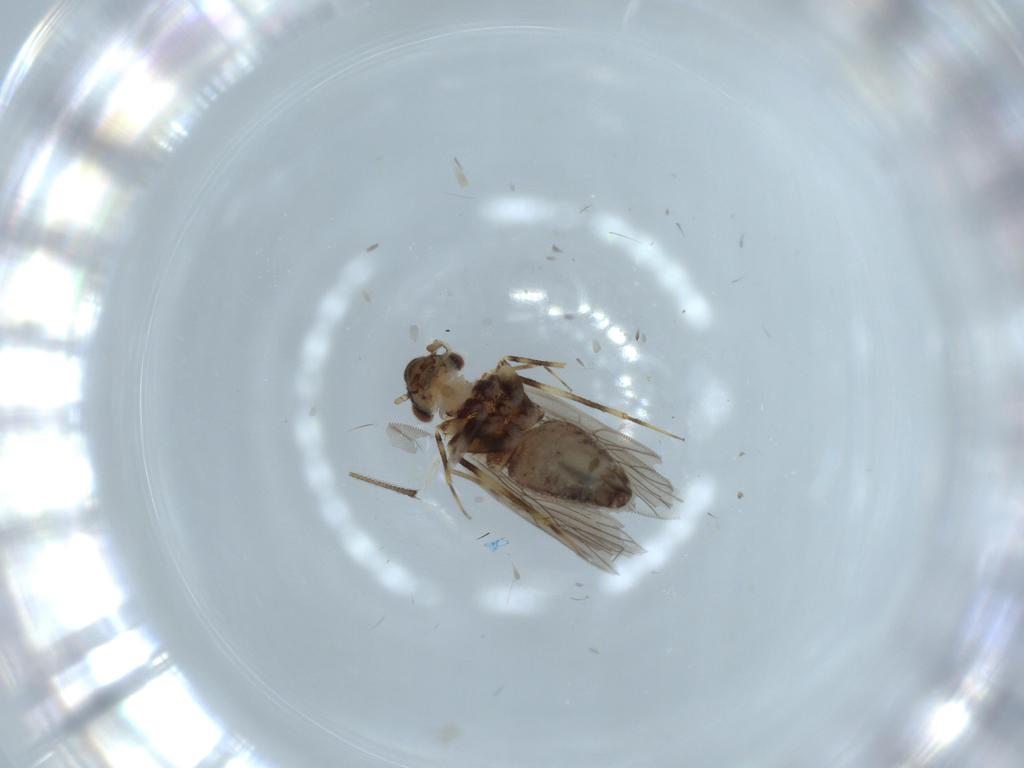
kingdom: Animalia
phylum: Arthropoda
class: Insecta
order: Psocodea
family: Lepidopsocidae
